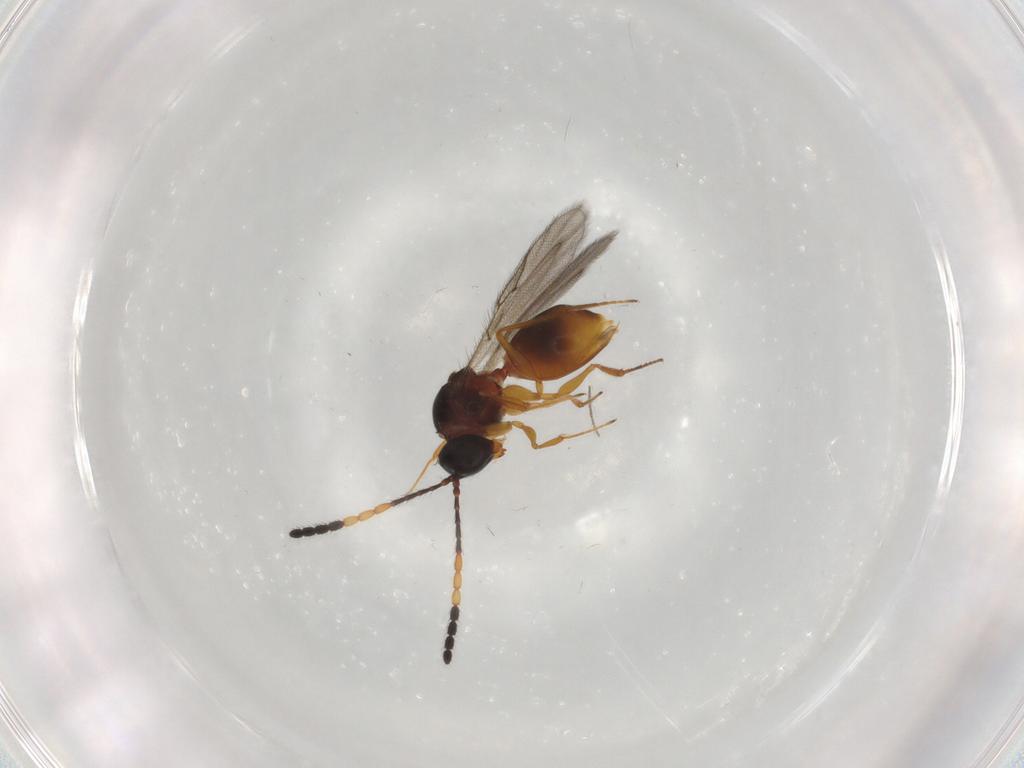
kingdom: Animalia
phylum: Arthropoda
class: Insecta
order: Hymenoptera
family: Figitidae
